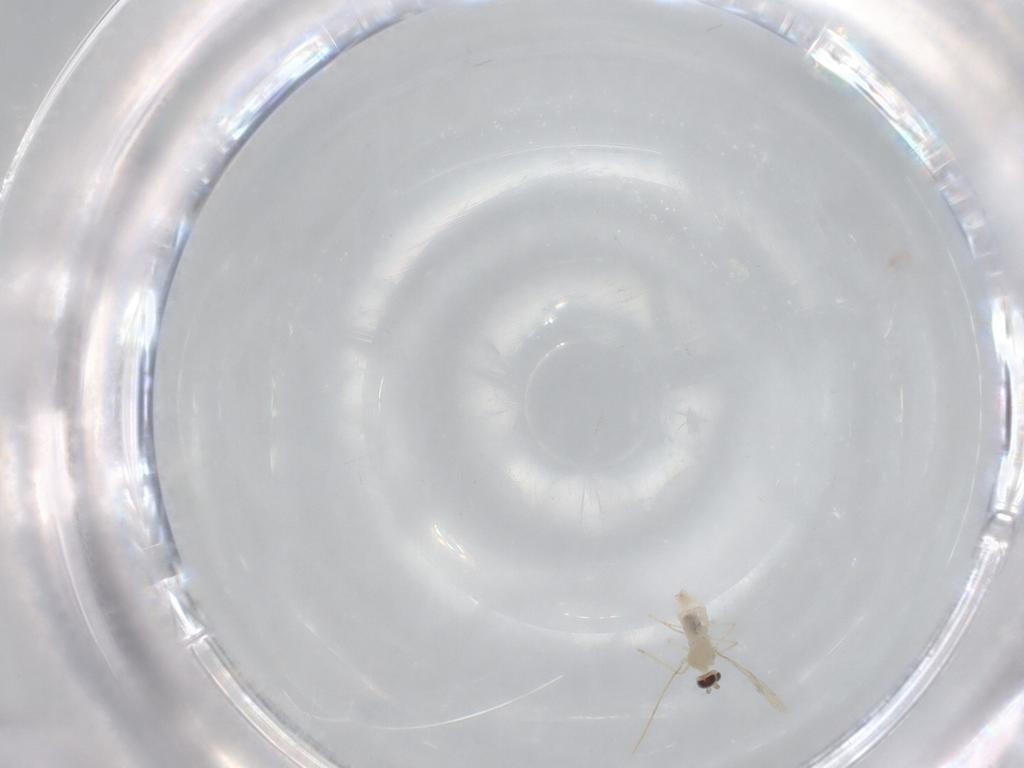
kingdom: Animalia
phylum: Arthropoda
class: Insecta
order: Diptera
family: Cecidomyiidae
